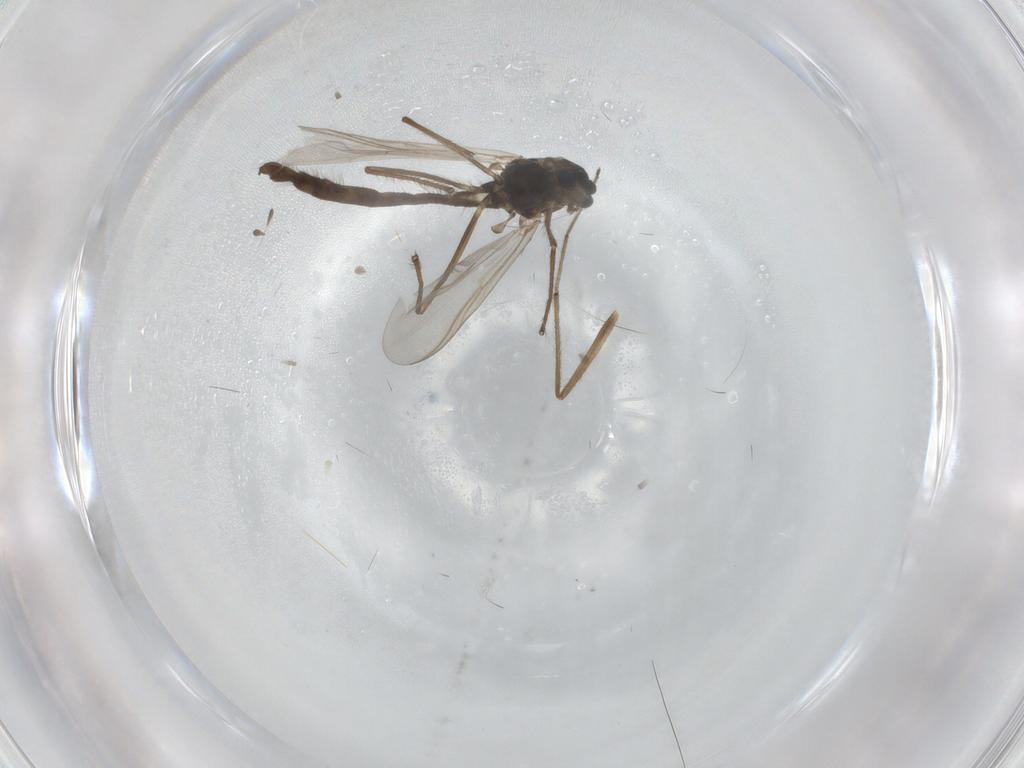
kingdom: Animalia
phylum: Arthropoda
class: Insecta
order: Diptera
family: Chironomidae
